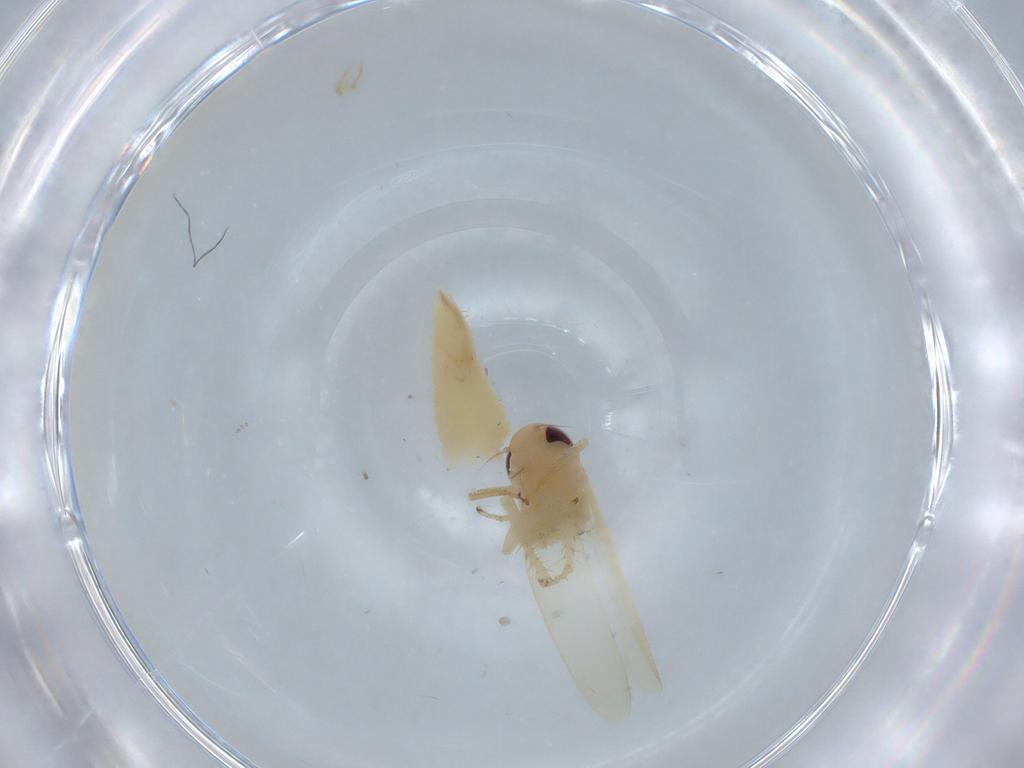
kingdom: Animalia
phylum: Arthropoda
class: Insecta
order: Hemiptera
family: Cicadellidae
